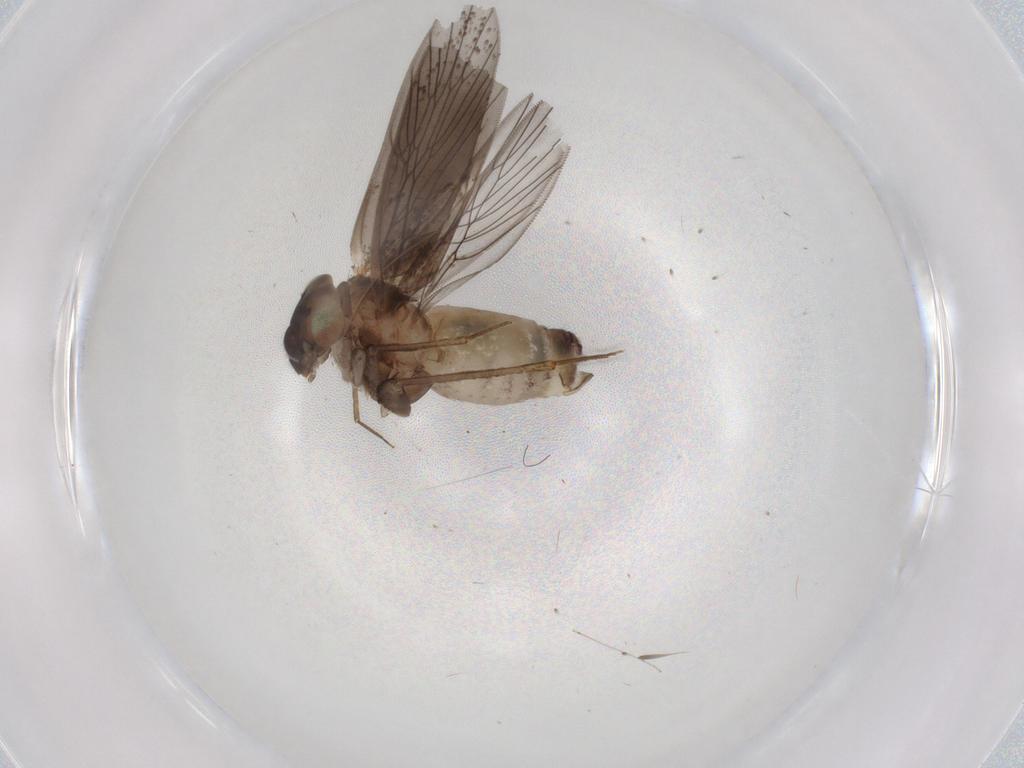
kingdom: Animalia
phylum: Arthropoda
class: Insecta
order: Psocodea
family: Lepidopsocidae
